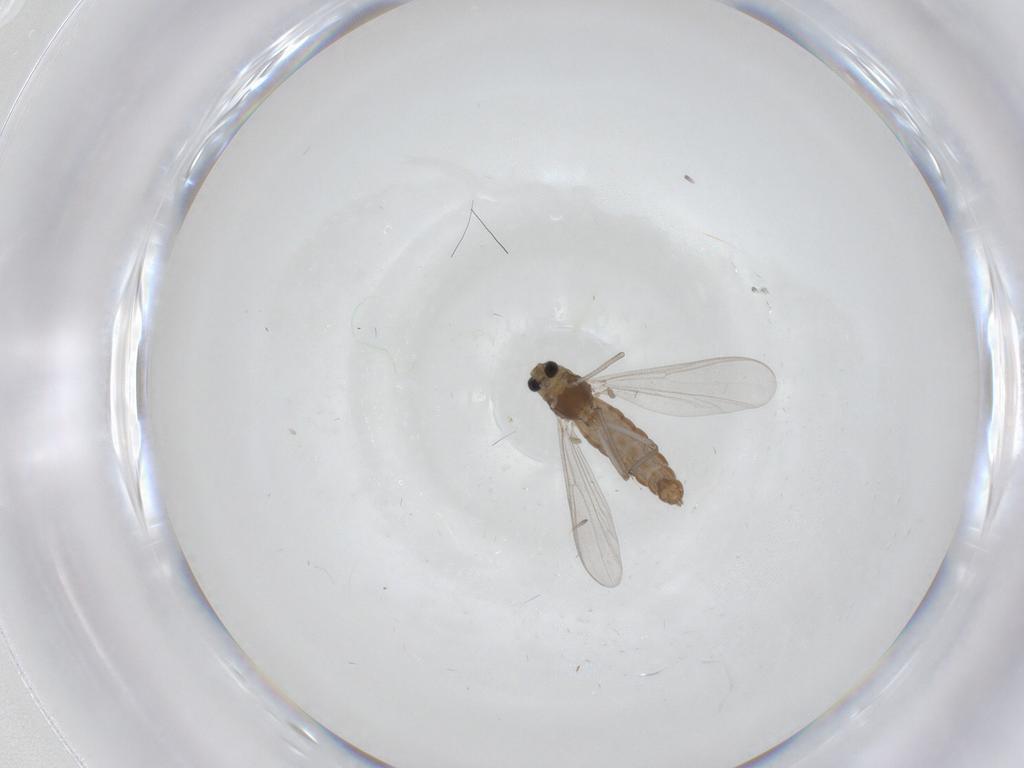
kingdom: Animalia
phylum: Arthropoda
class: Insecta
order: Diptera
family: Chironomidae
